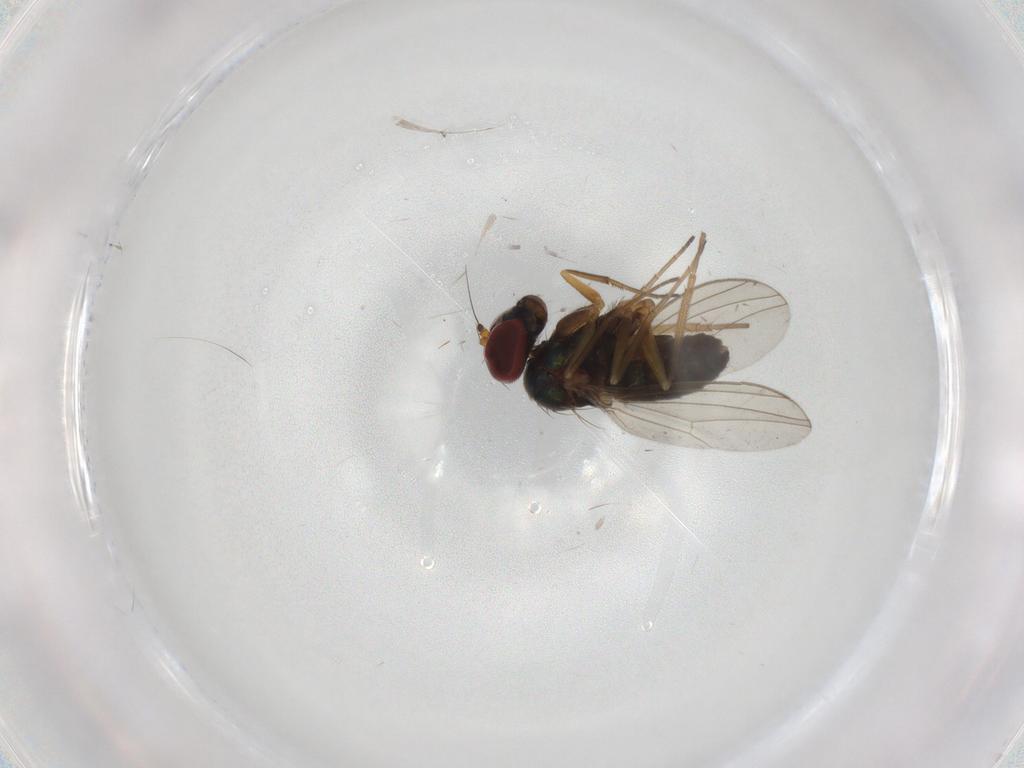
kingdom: Animalia
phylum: Arthropoda
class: Insecta
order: Diptera
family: Dolichopodidae
